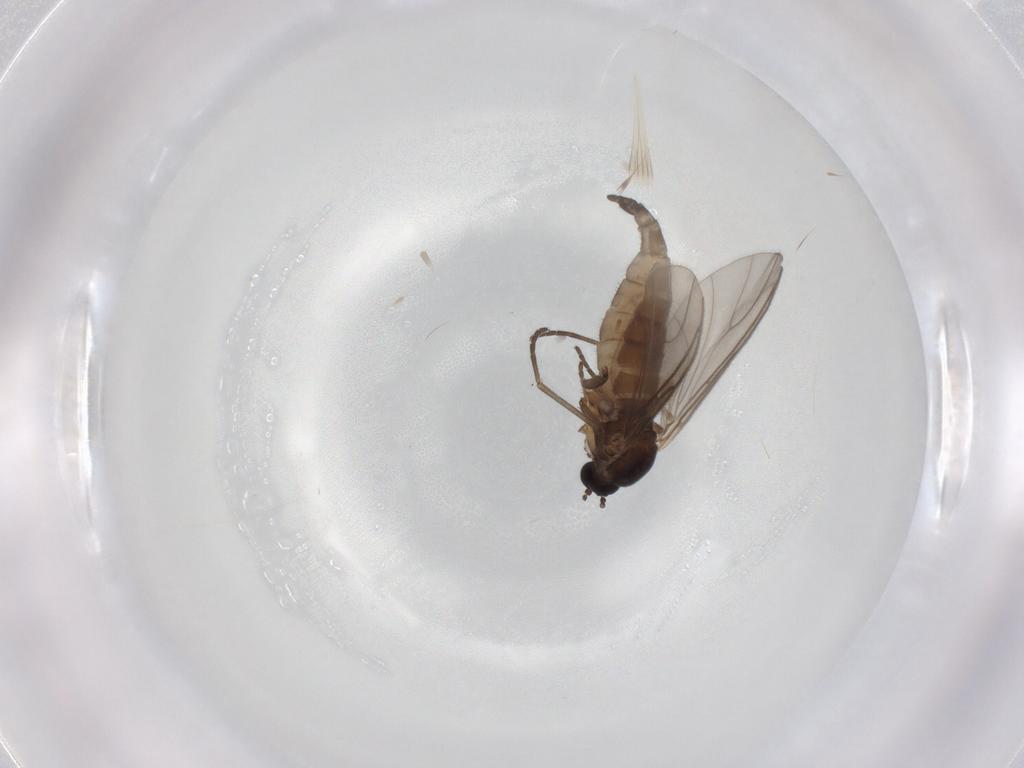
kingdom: Animalia
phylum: Arthropoda
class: Insecta
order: Diptera
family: Sciaridae
